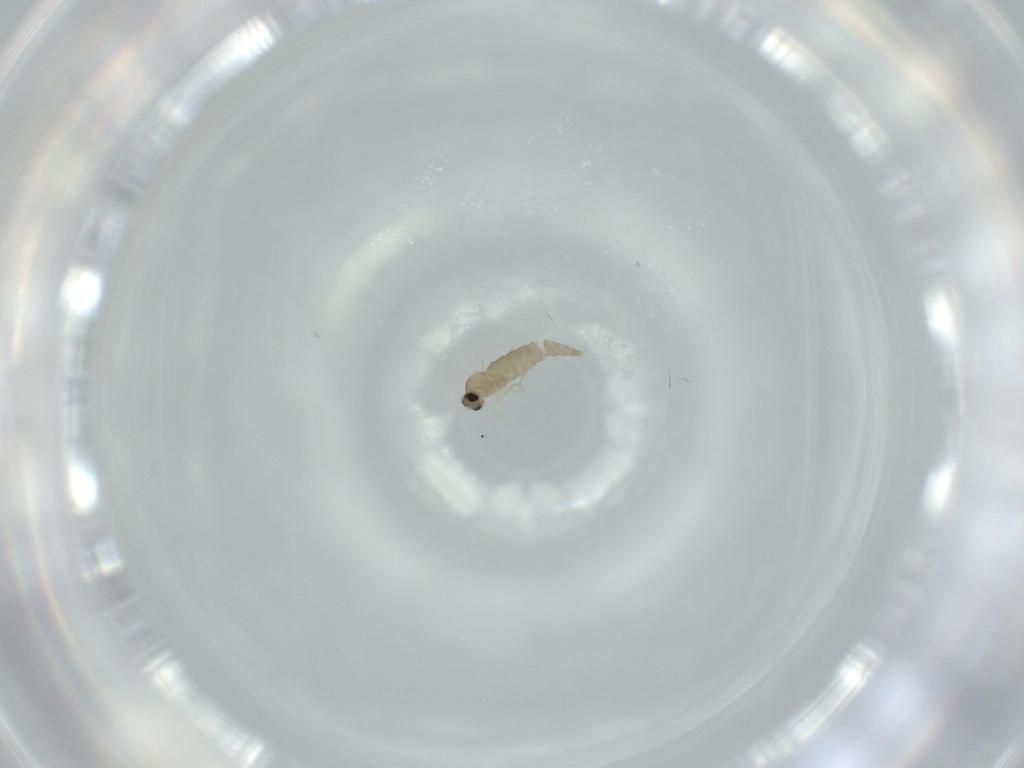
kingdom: Animalia
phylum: Arthropoda
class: Insecta
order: Diptera
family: Cecidomyiidae
